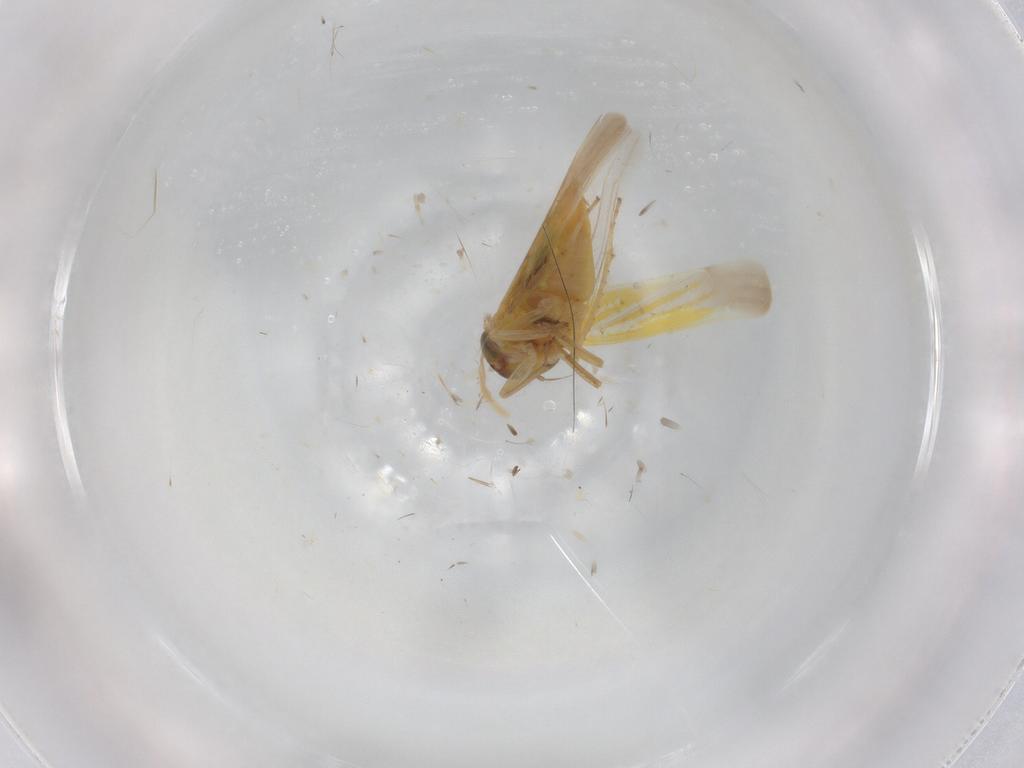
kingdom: Animalia
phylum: Arthropoda
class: Insecta
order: Hemiptera
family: Cicadellidae
